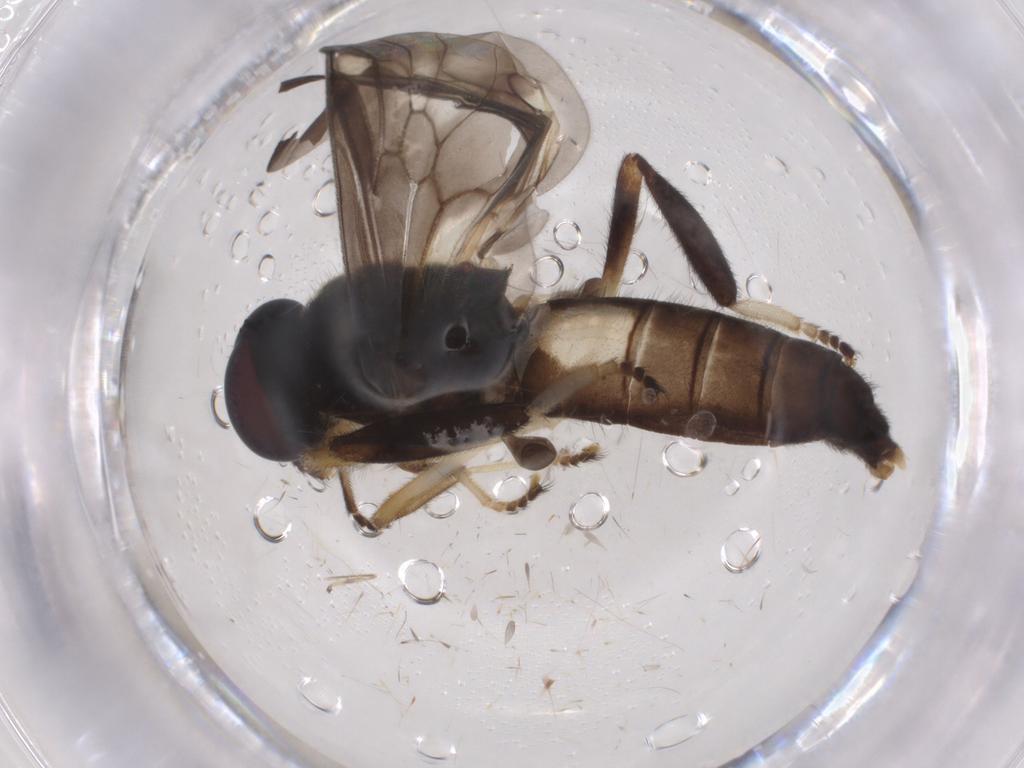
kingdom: Animalia
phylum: Arthropoda
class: Insecta
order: Diptera
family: Stratiomyidae
